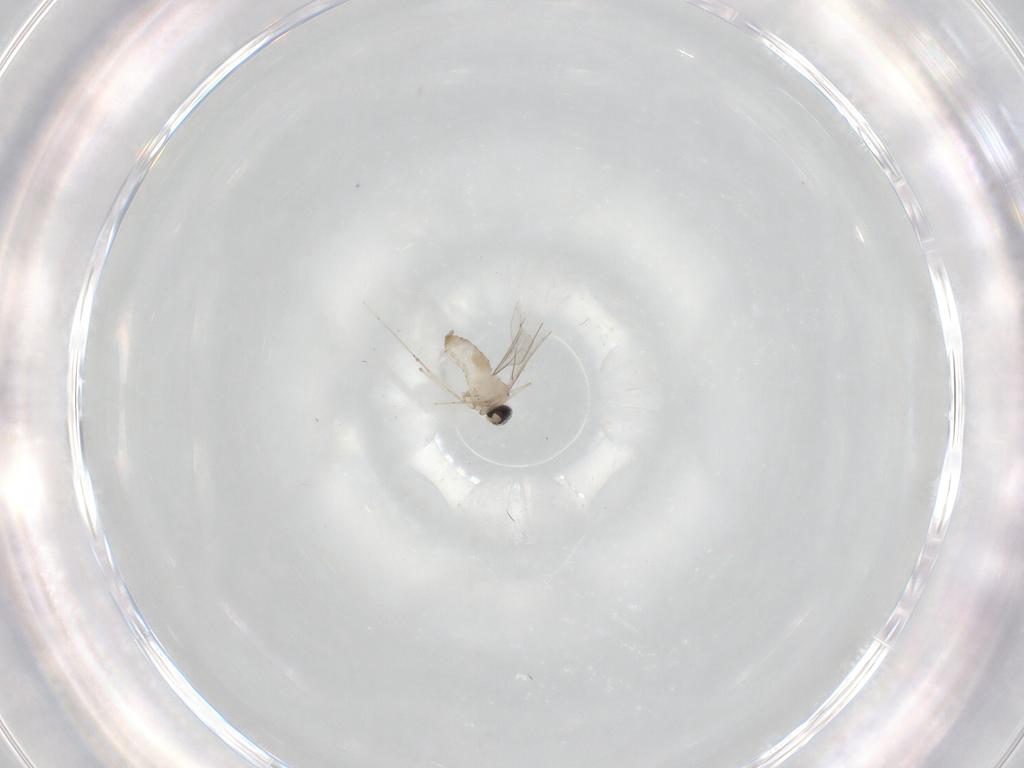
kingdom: Animalia
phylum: Arthropoda
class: Insecta
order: Diptera
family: Cecidomyiidae
